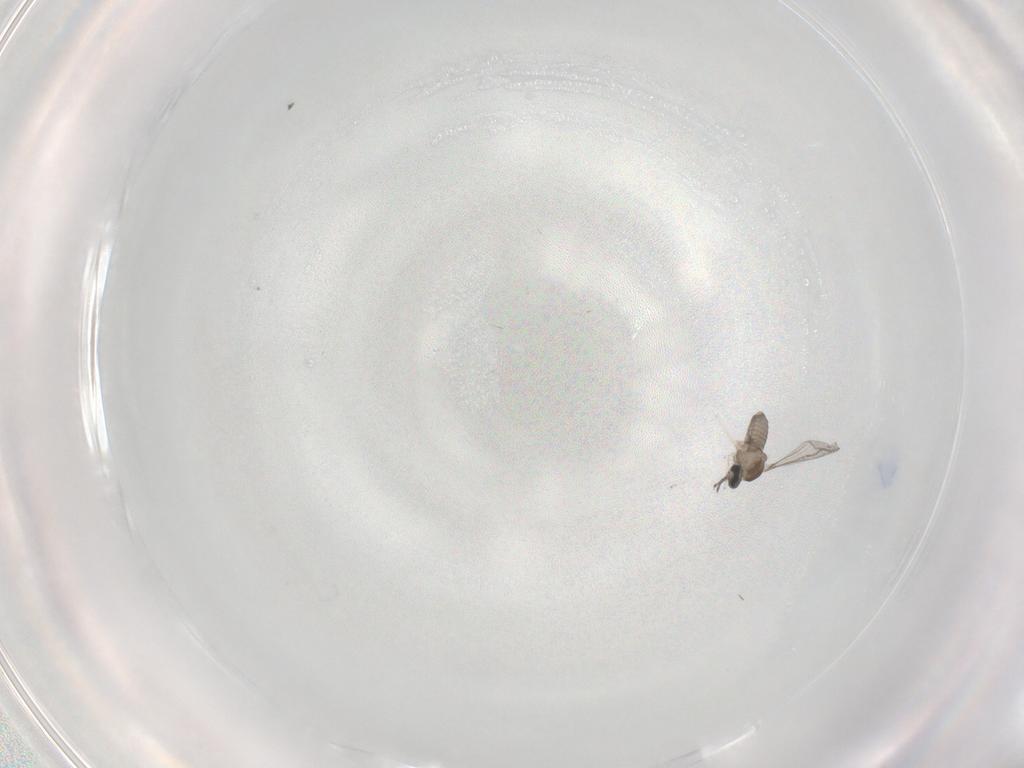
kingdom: Animalia
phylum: Arthropoda
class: Insecta
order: Diptera
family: Cecidomyiidae
